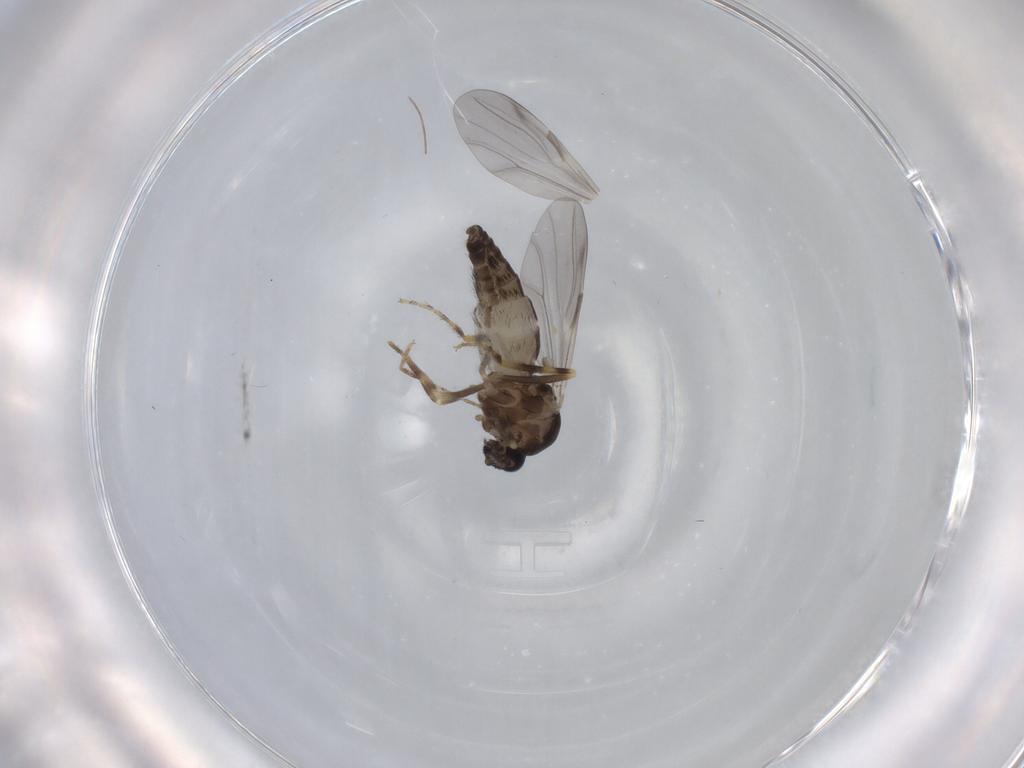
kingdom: Animalia
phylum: Arthropoda
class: Insecta
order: Diptera
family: Ceratopogonidae
